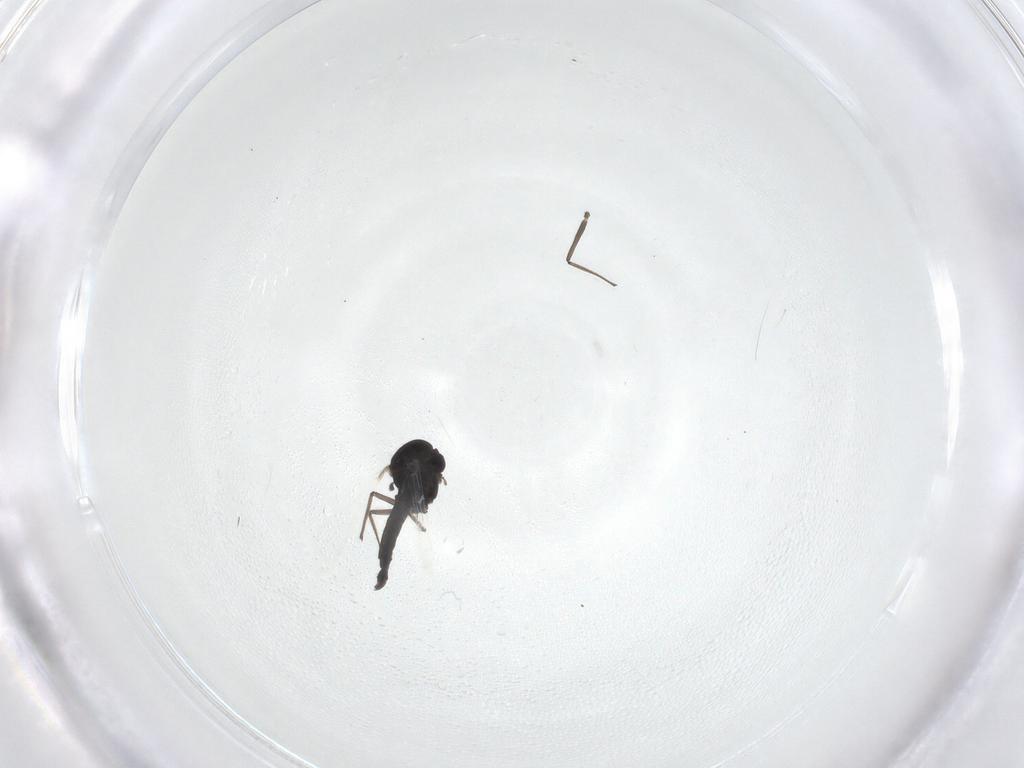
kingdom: Animalia
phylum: Arthropoda
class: Insecta
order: Diptera
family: Chironomidae
